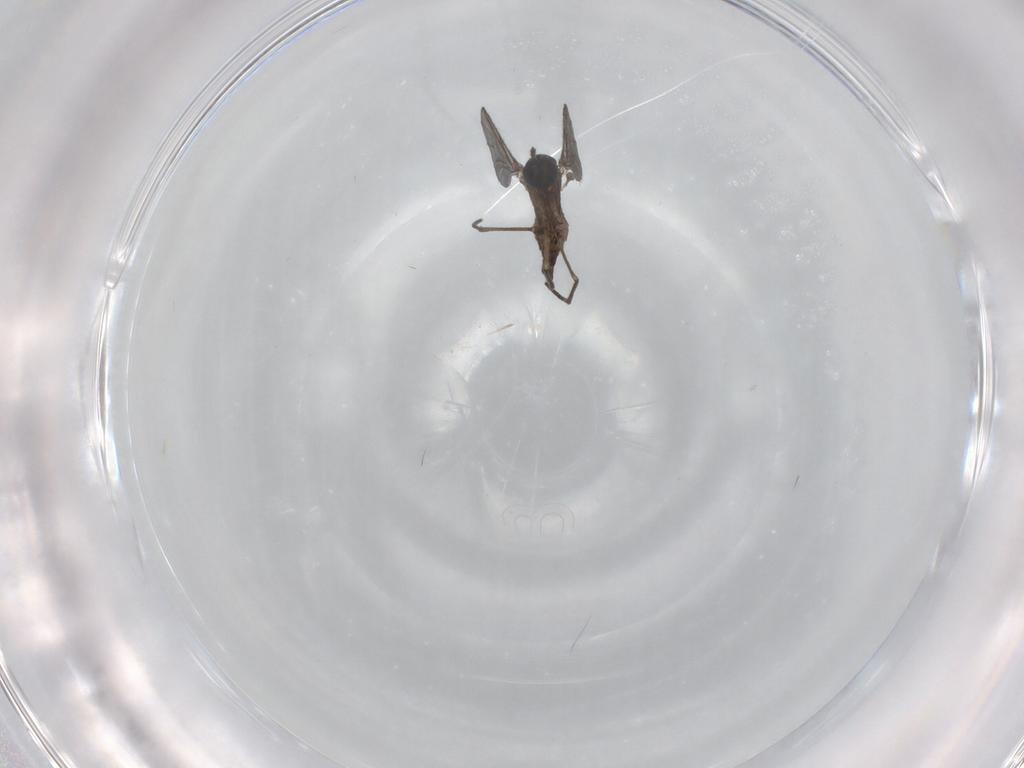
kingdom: Animalia
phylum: Arthropoda
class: Insecta
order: Diptera
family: Sciaridae
